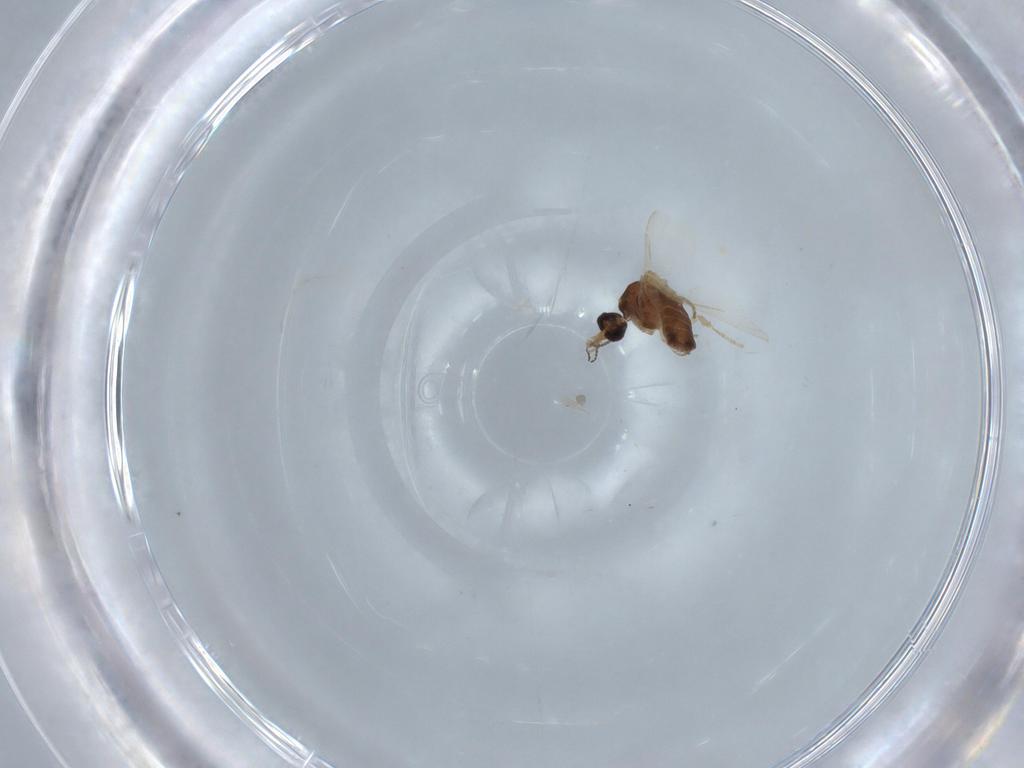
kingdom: Animalia
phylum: Arthropoda
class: Insecta
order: Diptera
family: Ceratopogonidae
